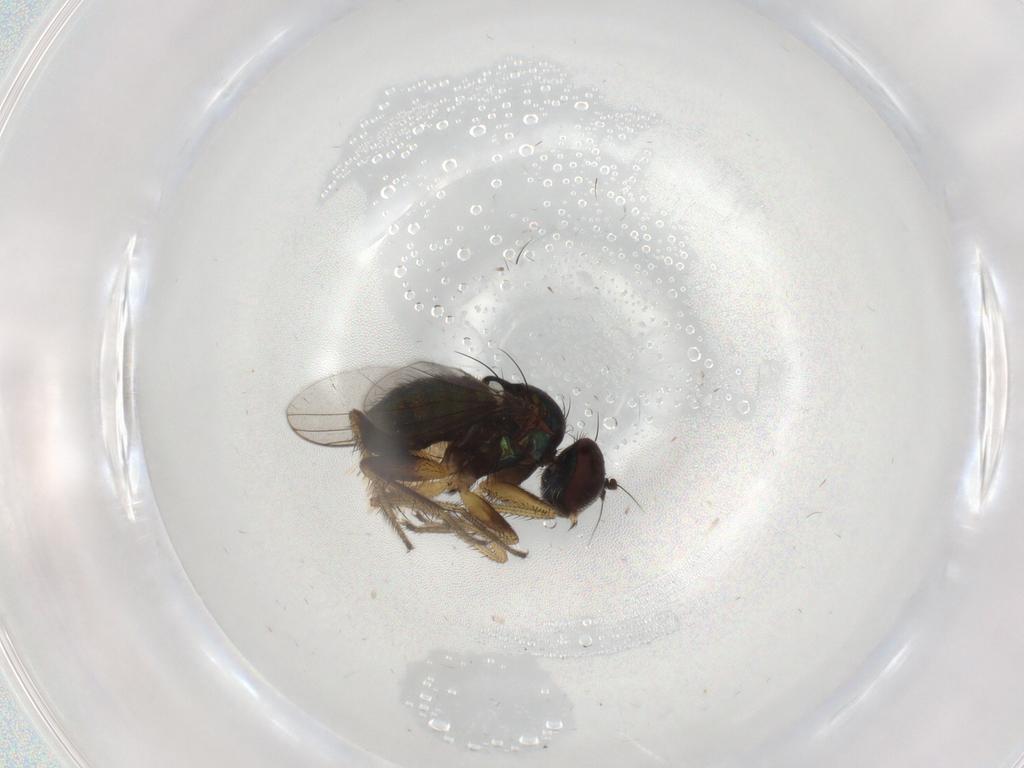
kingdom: Animalia
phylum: Arthropoda
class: Insecta
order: Diptera
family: Dolichopodidae
